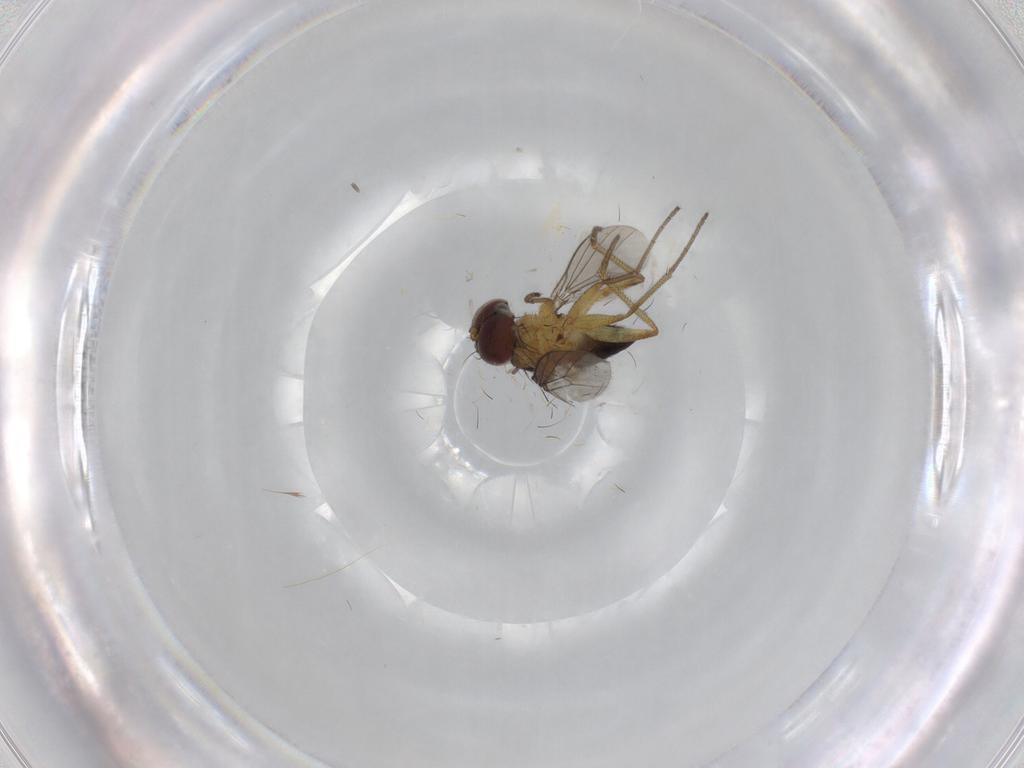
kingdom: Animalia
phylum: Arthropoda
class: Insecta
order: Diptera
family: Dolichopodidae
